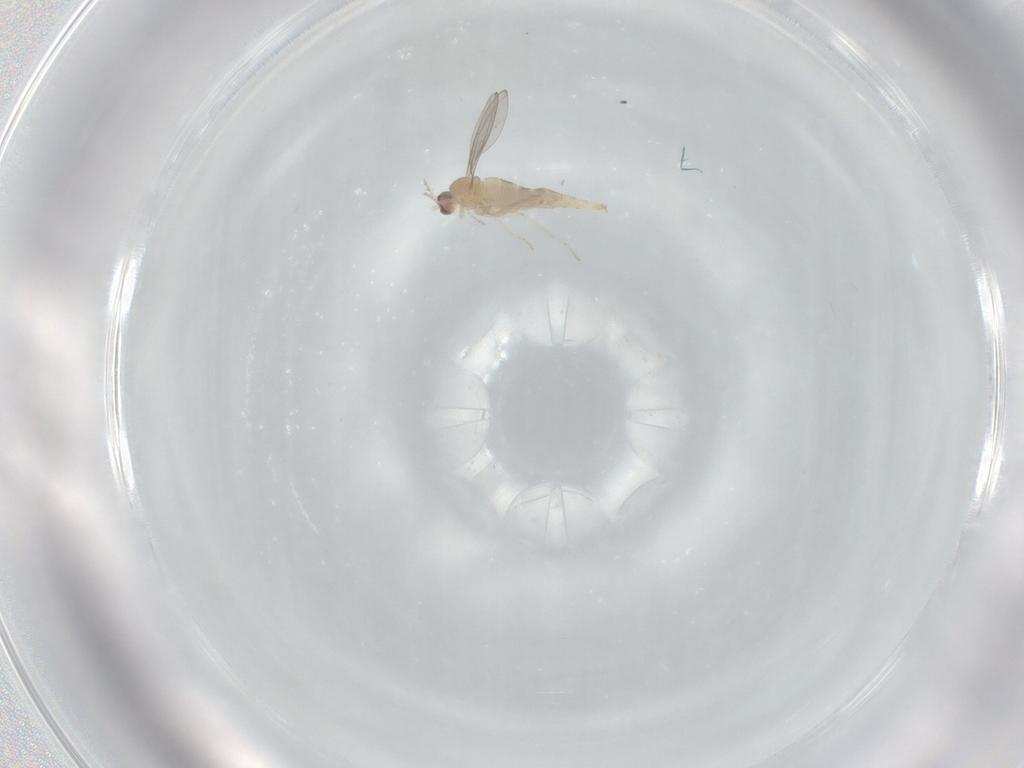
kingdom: Animalia
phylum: Arthropoda
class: Insecta
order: Diptera
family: Cecidomyiidae
